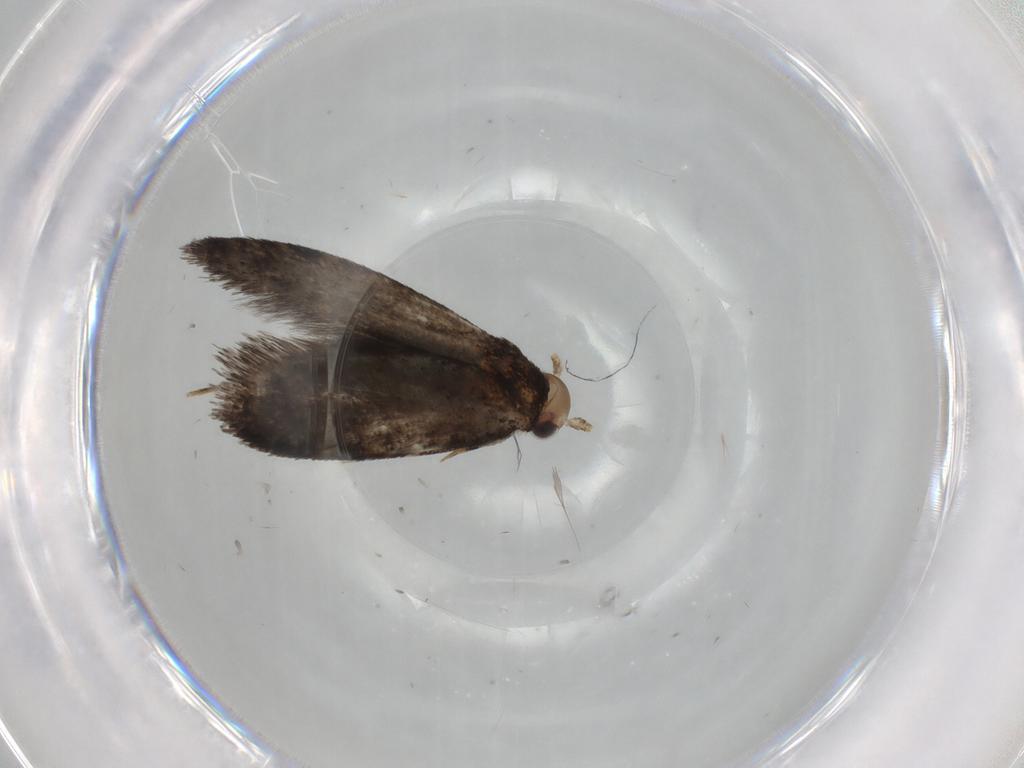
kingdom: Animalia
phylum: Arthropoda
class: Insecta
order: Lepidoptera
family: Tineidae
